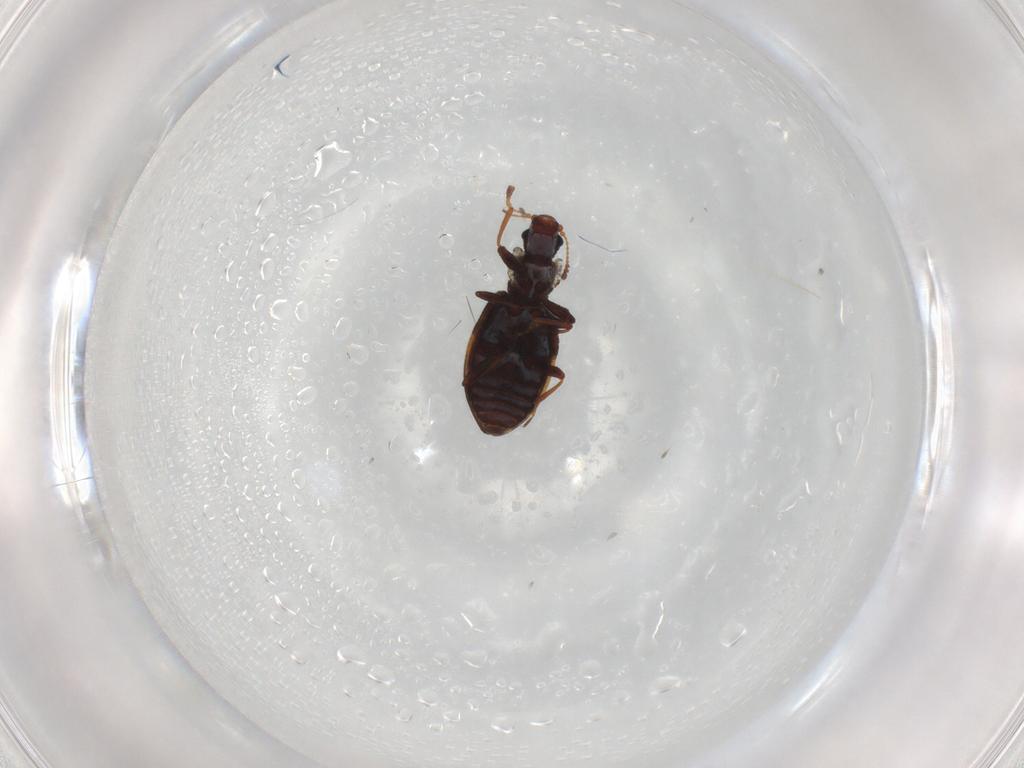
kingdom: Animalia
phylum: Arthropoda
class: Insecta
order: Coleoptera
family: Latridiidae
